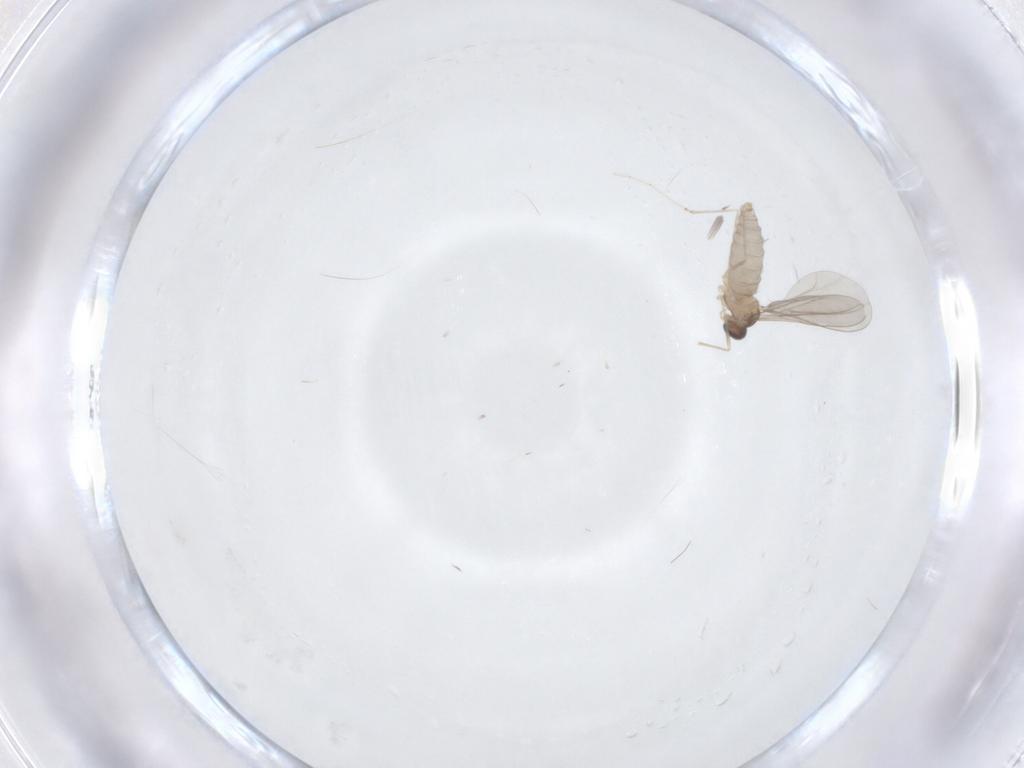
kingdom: Animalia
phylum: Arthropoda
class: Insecta
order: Diptera
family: Cecidomyiidae
